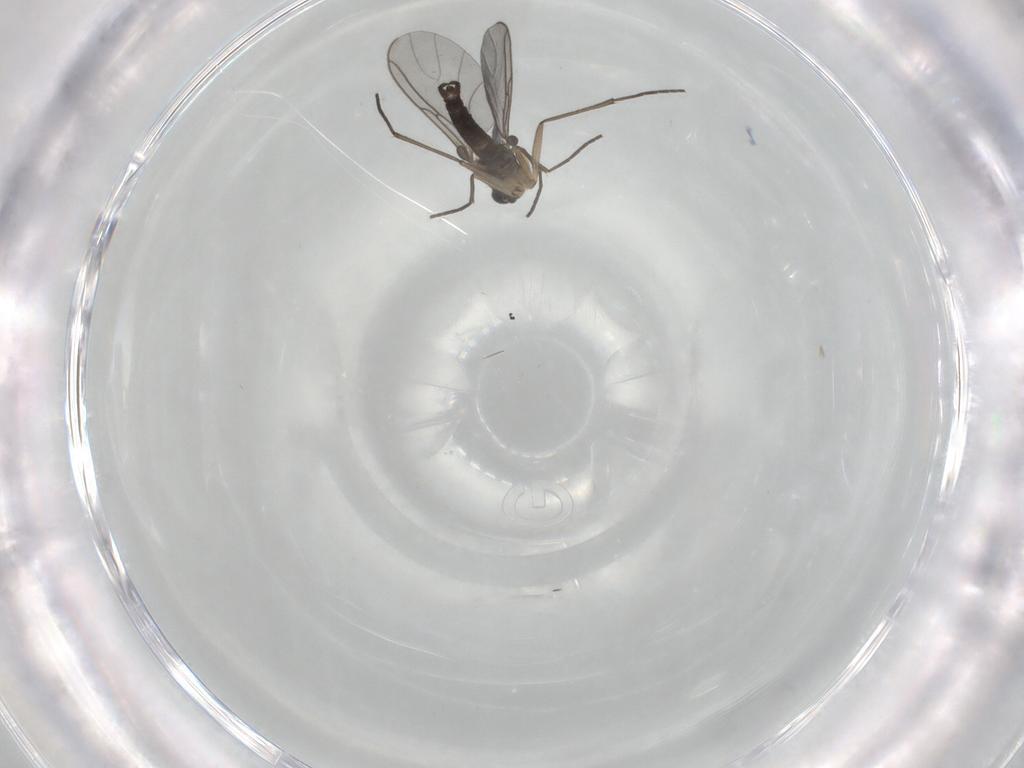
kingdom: Animalia
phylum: Arthropoda
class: Insecta
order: Diptera
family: Sciaridae
